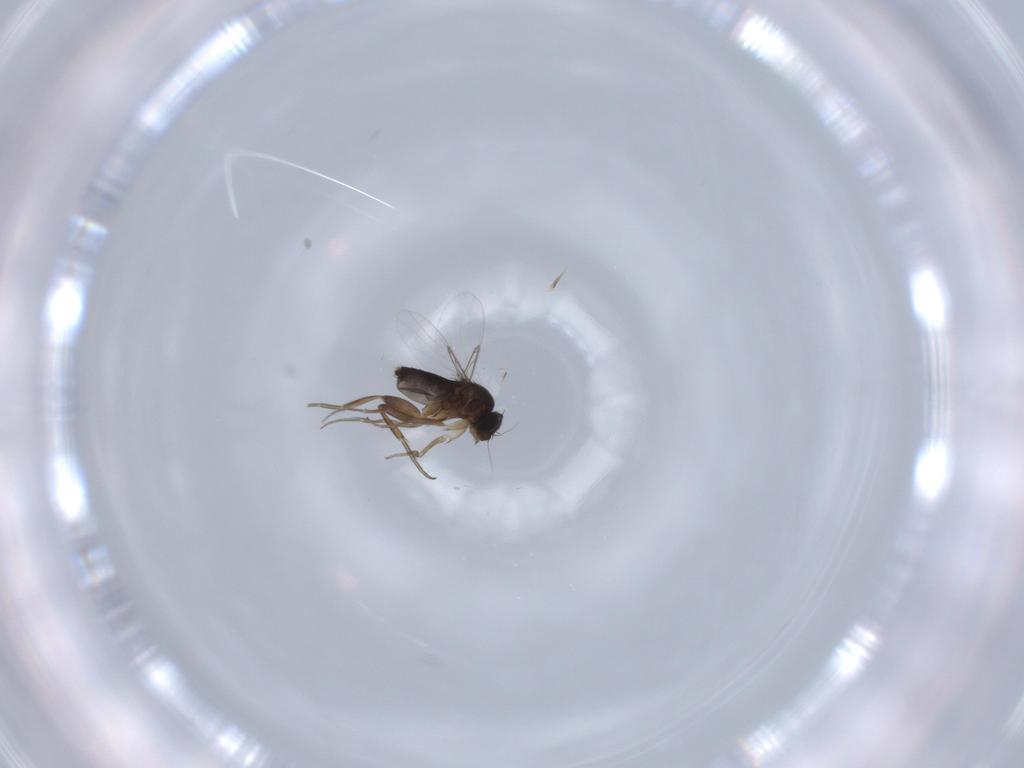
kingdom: Animalia
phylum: Arthropoda
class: Insecta
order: Diptera
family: Phoridae
